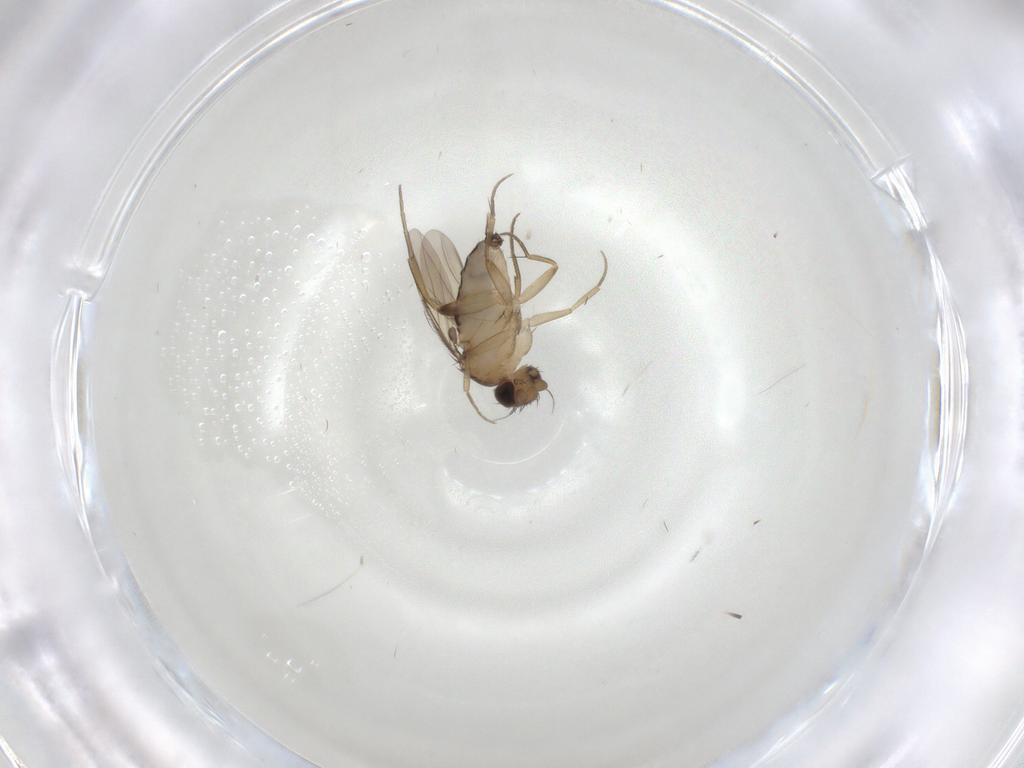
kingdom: Animalia
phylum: Arthropoda
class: Insecta
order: Diptera
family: Phoridae
